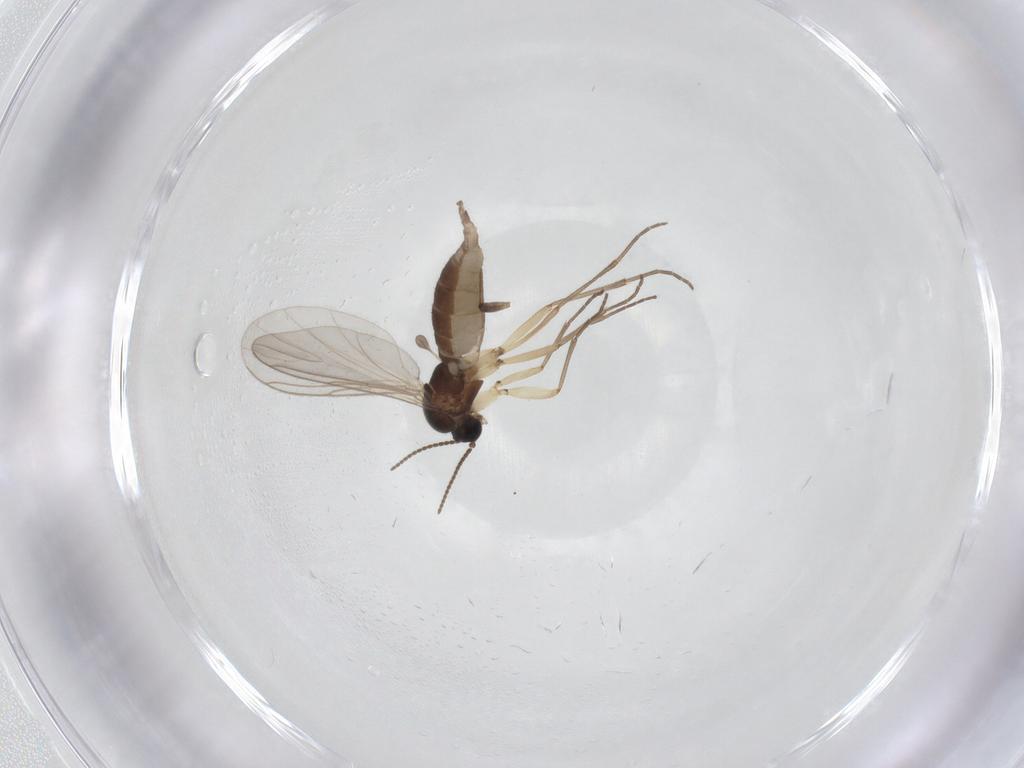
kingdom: Animalia
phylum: Arthropoda
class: Insecta
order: Diptera
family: Sciaridae
